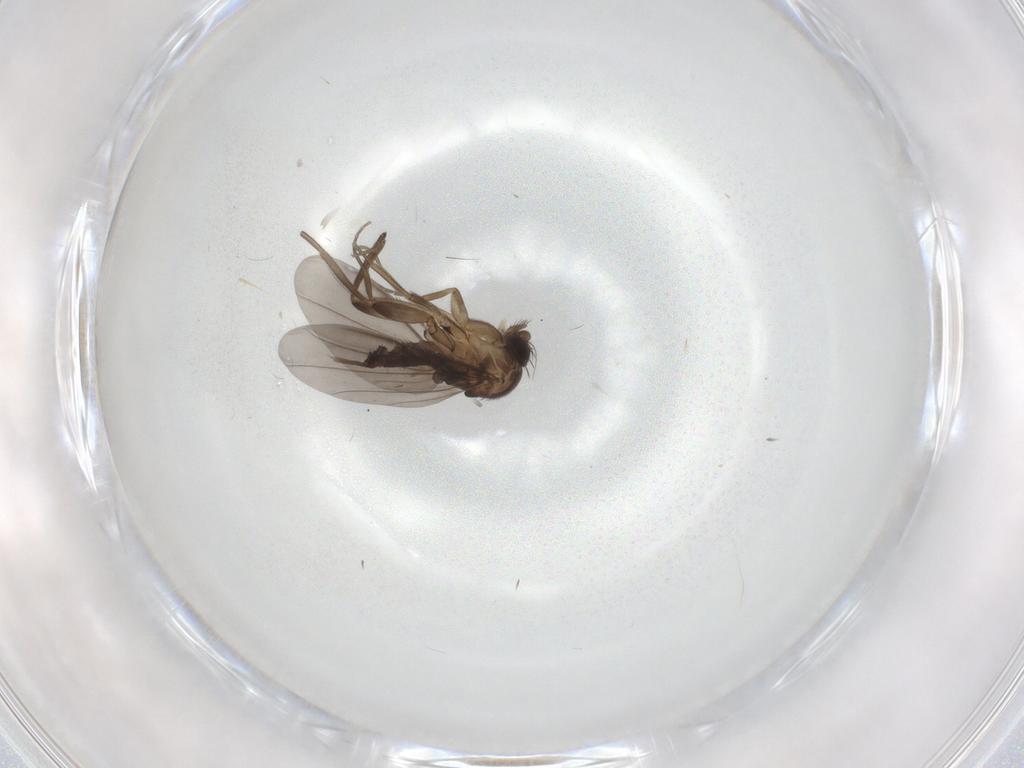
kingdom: Animalia
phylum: Arthropoda
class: Insecta
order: Diptera
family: Phoridae
